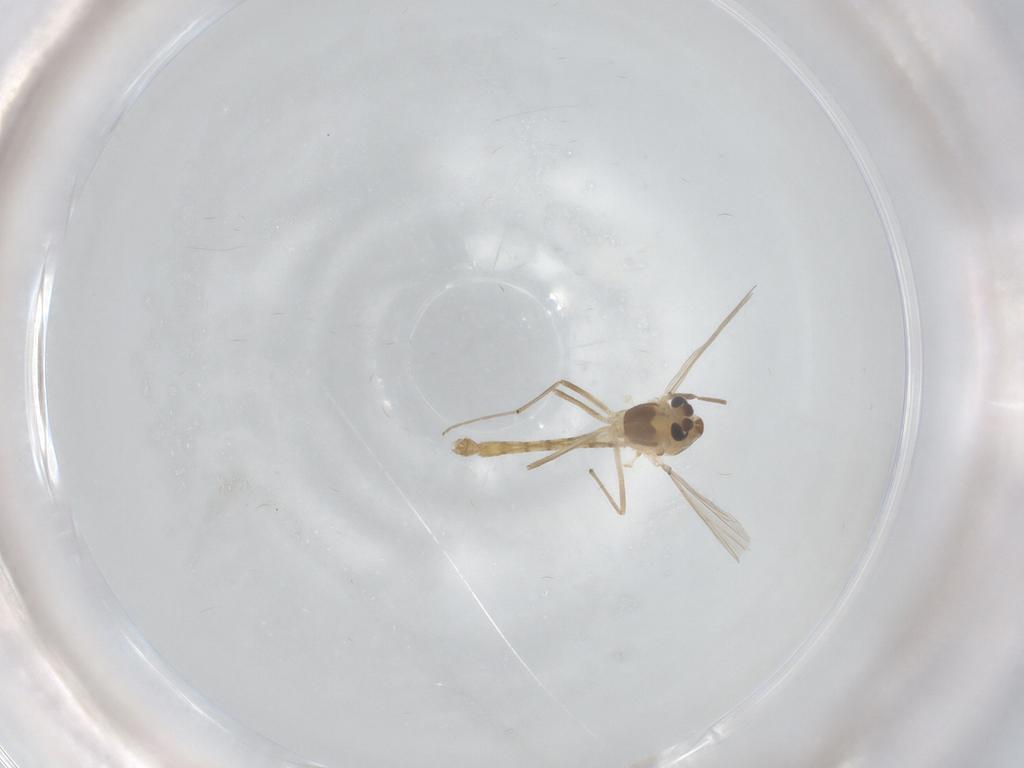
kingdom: Animalia
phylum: Arthropoda
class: Insecta
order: Diptera
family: Chironomidae
